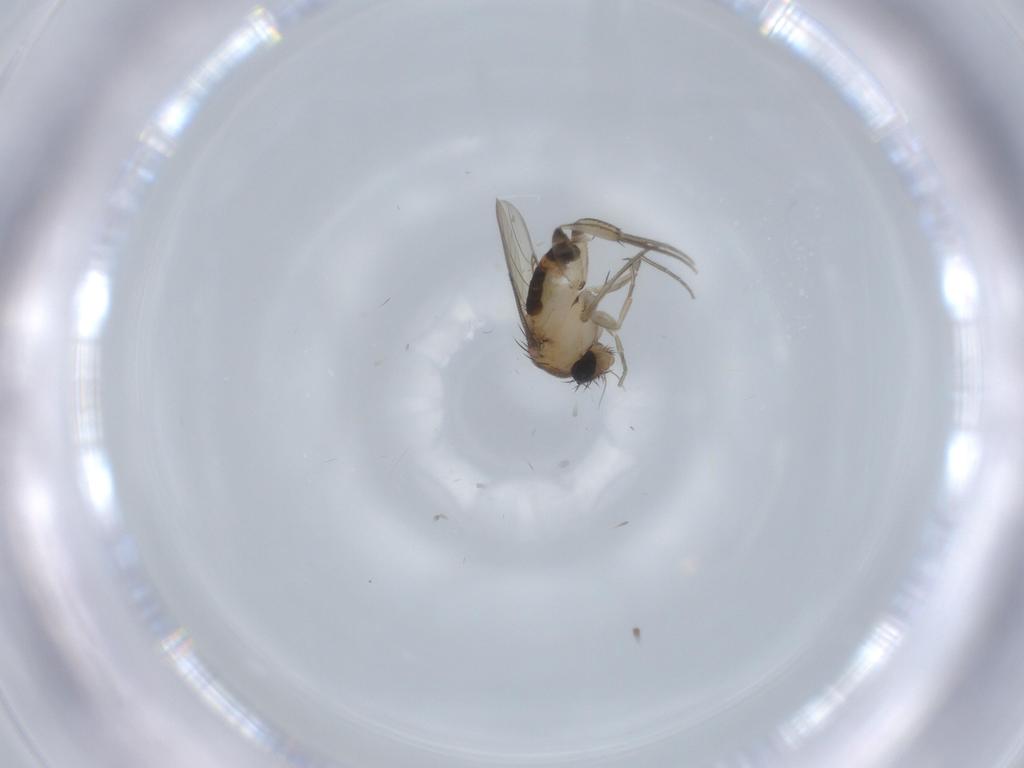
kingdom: Animalia
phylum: Arthropoda
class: Insecta
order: Diptera
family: Phoridae
